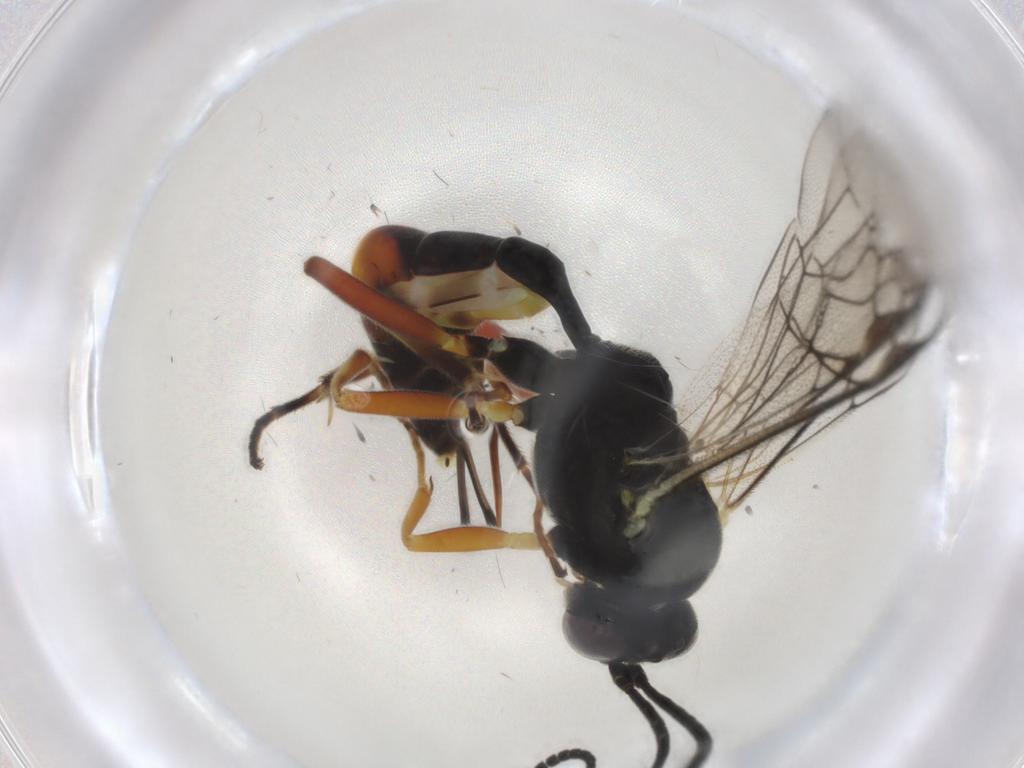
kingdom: Animalia
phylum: Arthropoda
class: Insecta
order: Hymenoptera
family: Ichneumonidae
